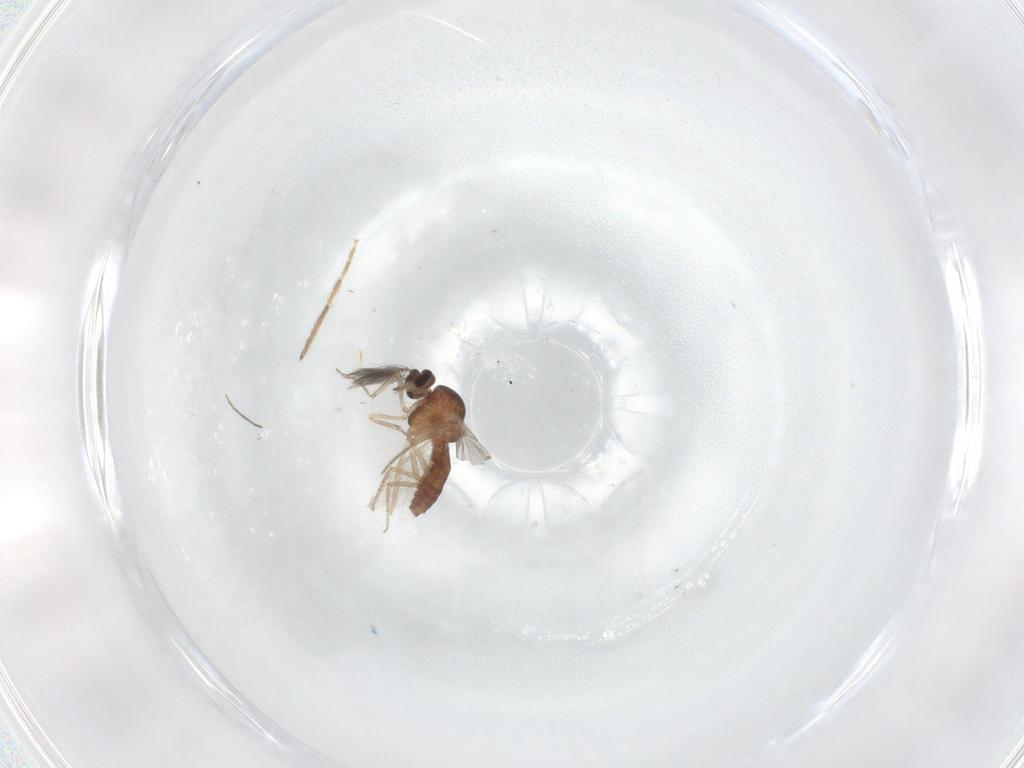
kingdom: Animalia
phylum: Arthropoda
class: Insecta
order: Diptera
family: Ceratopogonidae
